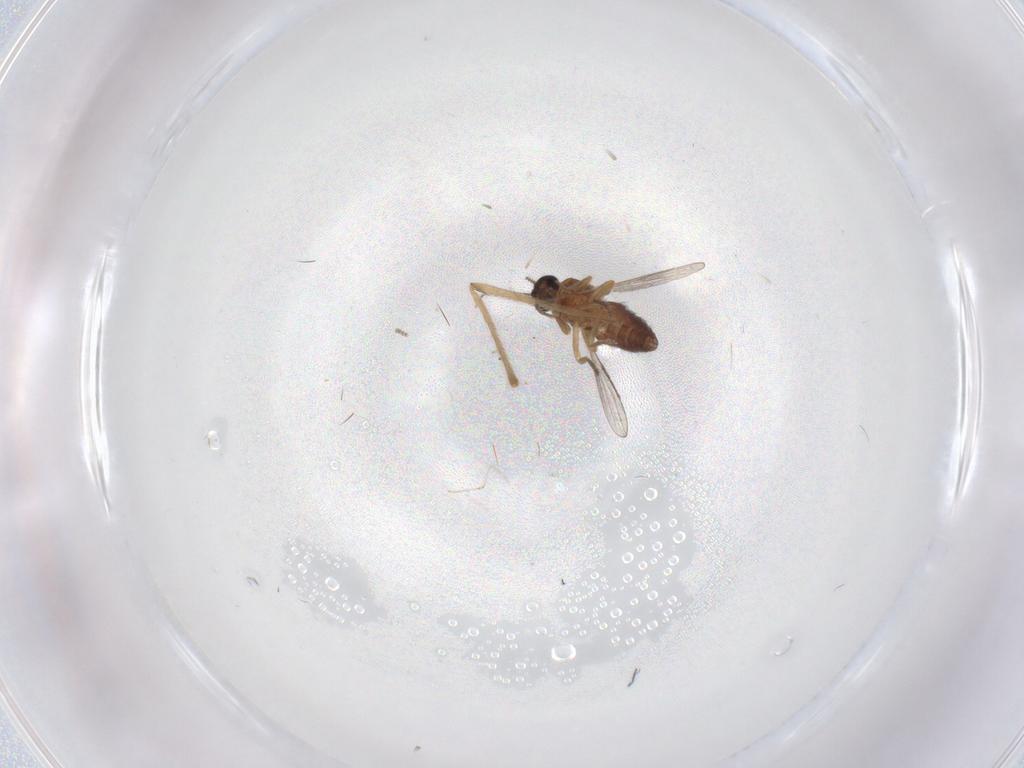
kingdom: Animalia
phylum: Arthropoda
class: Insecta
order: Diptera
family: Ceratopogonidae
